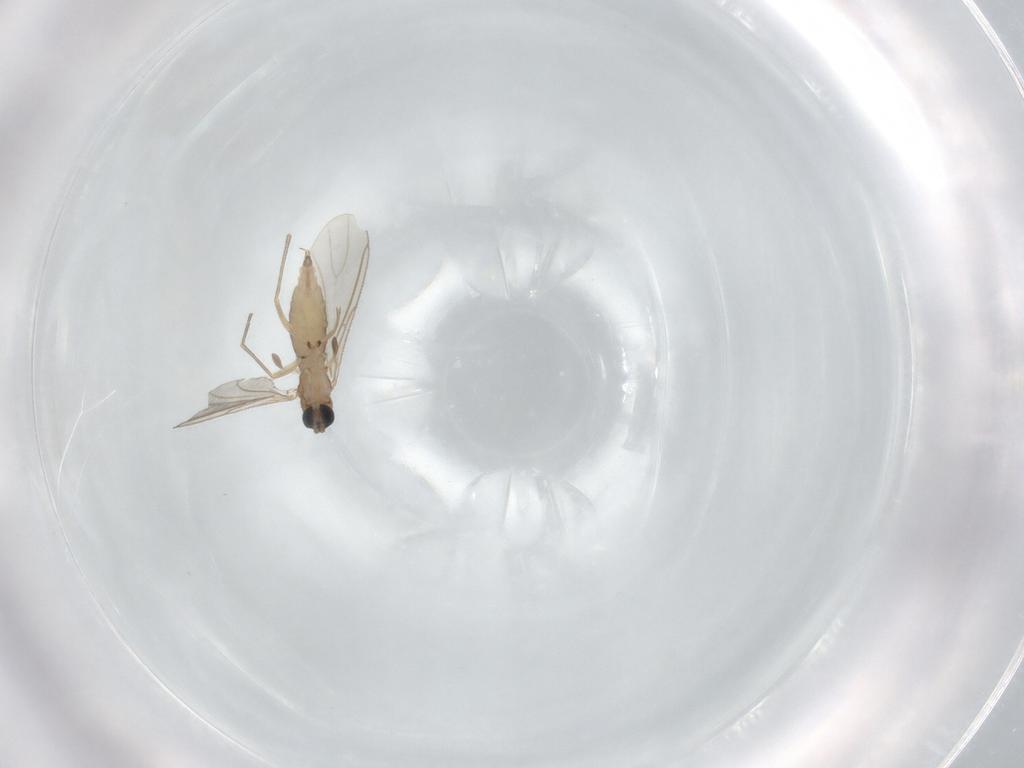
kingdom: Animalia
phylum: Arthropoda
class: Insecta
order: Diptera
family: Sciaridae
